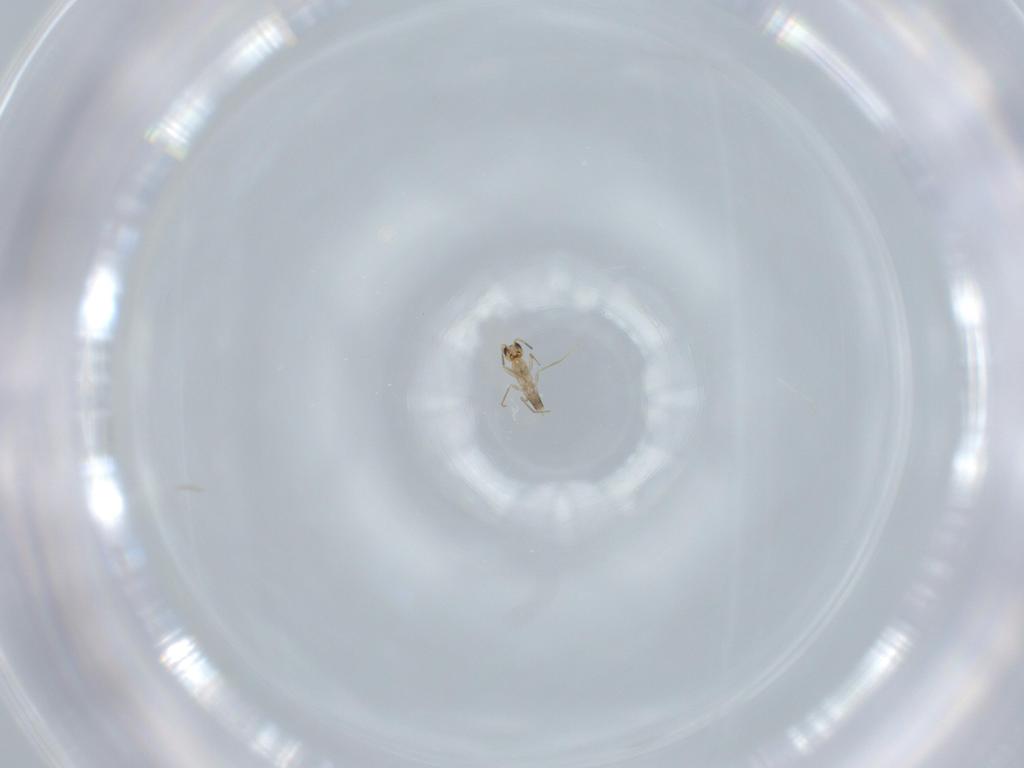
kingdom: Animalia
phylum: Arthropoda
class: Insecta
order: Hymenoptera
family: Mymaridae
